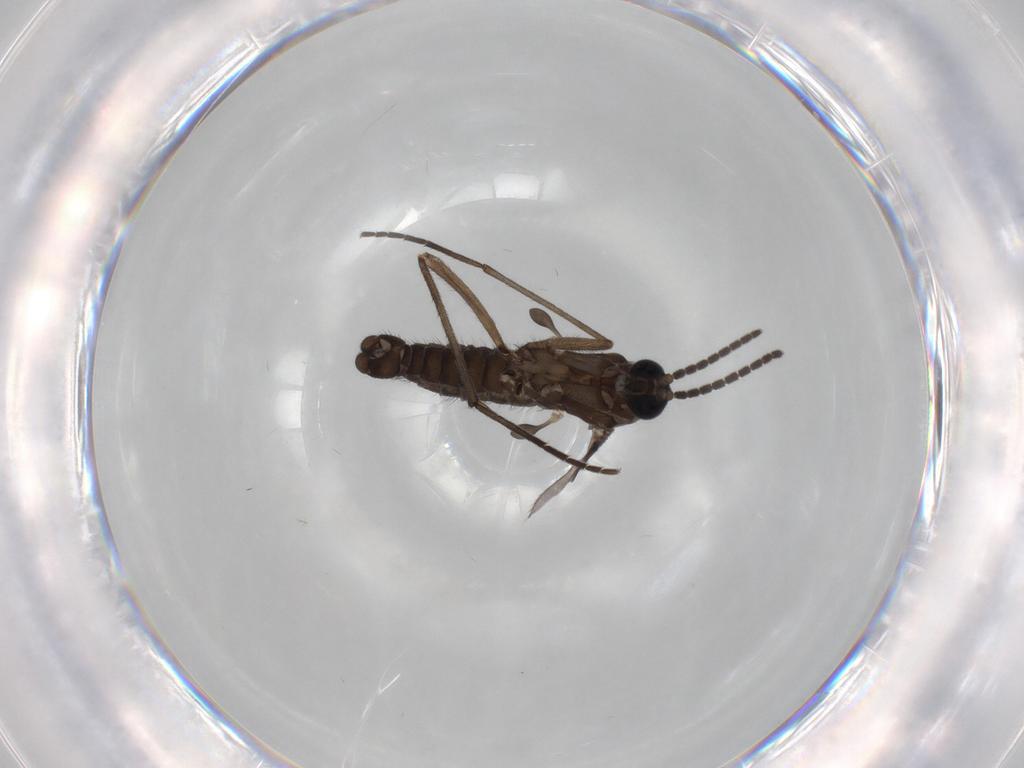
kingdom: Animalia
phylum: Arthropoda
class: Insecta
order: Diptera
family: Sciaridae
